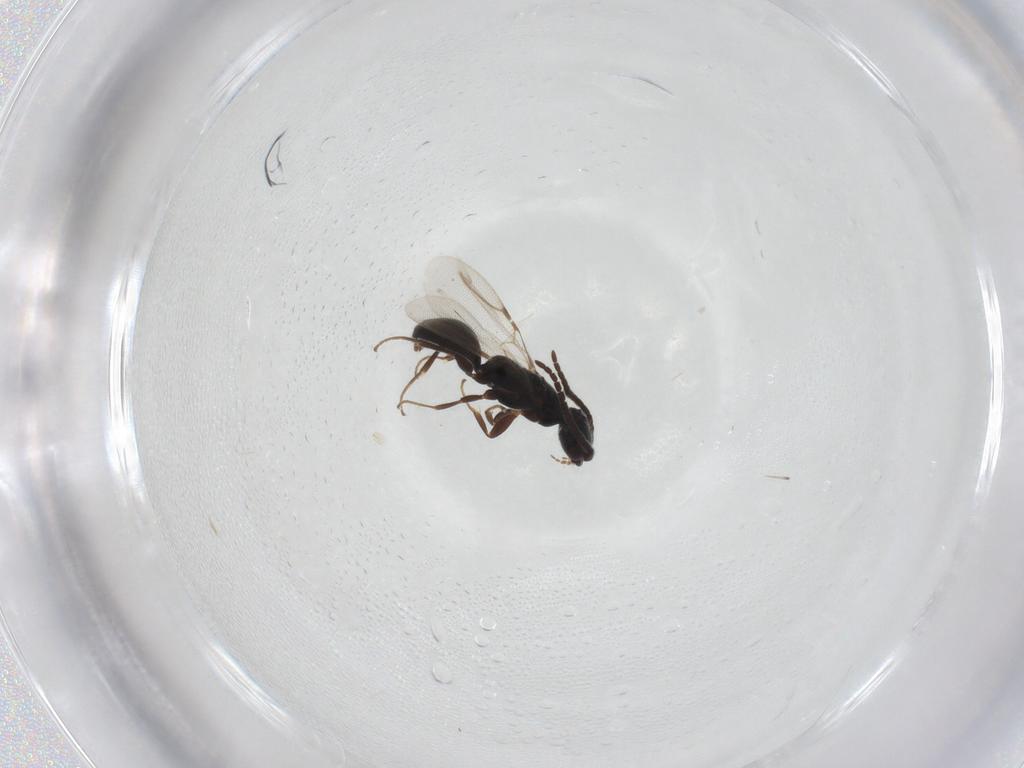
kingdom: Animalia
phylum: Arthropoda
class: Insecta
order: Hymenoptera
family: Bethylidae
